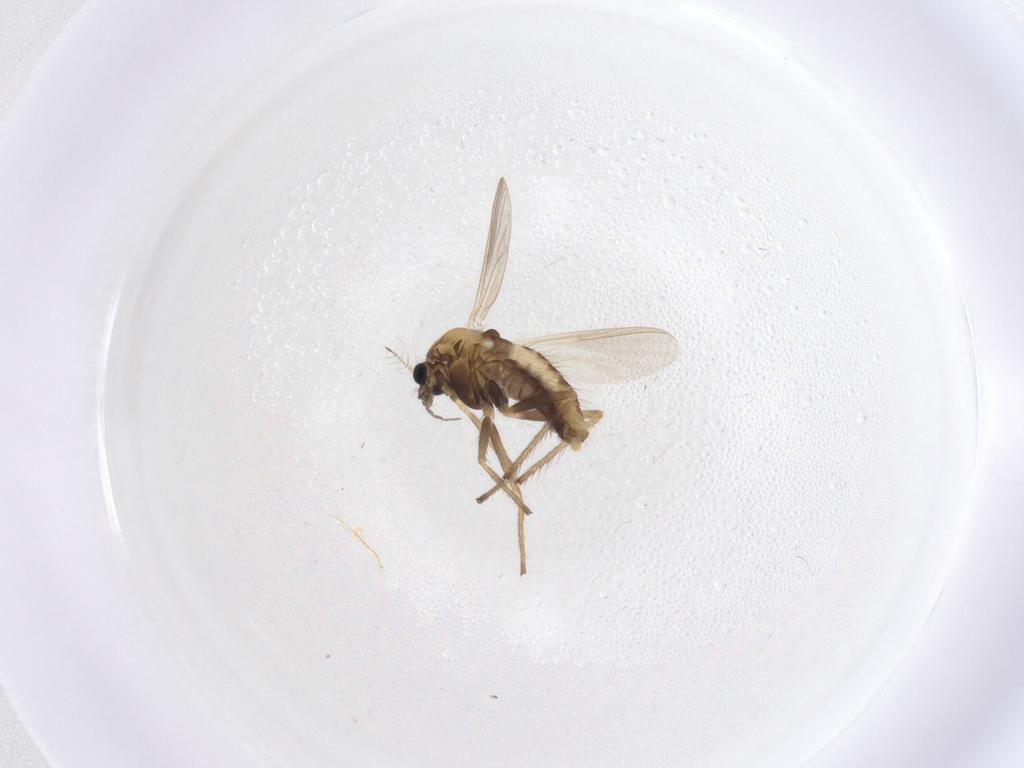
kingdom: Animalia
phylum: Arthropoda
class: Insecta
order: Diptera
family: Chironomidae
